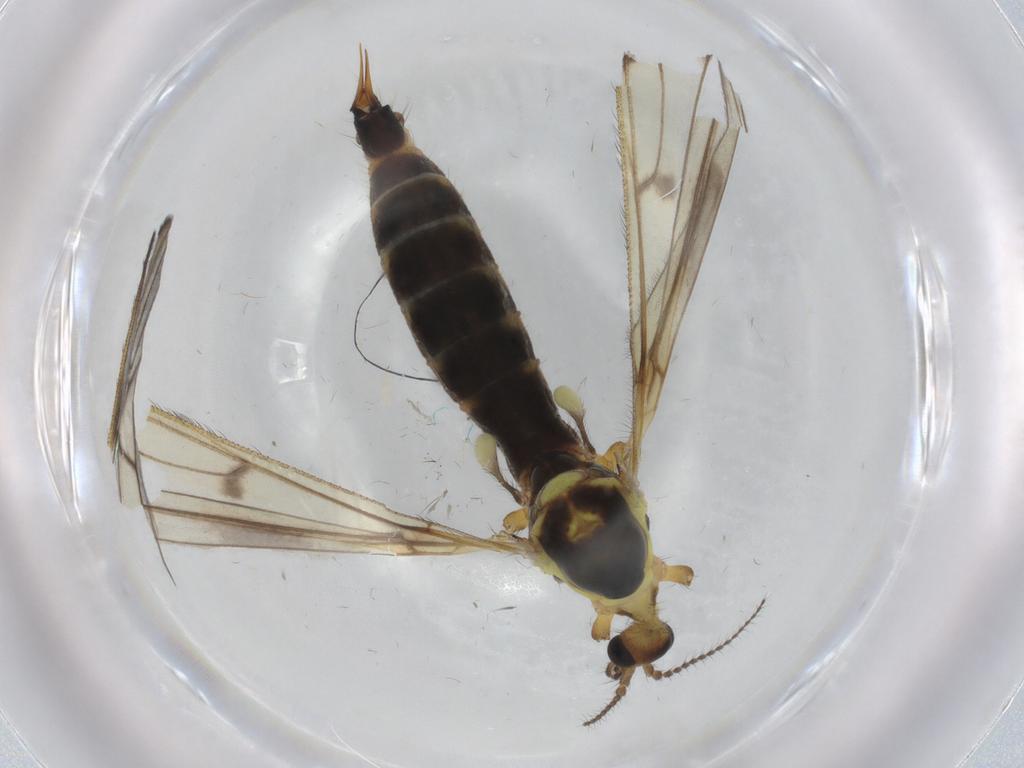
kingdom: Animalia
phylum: Arthropoda
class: Insecta
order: Diptera
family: Limoniidae
